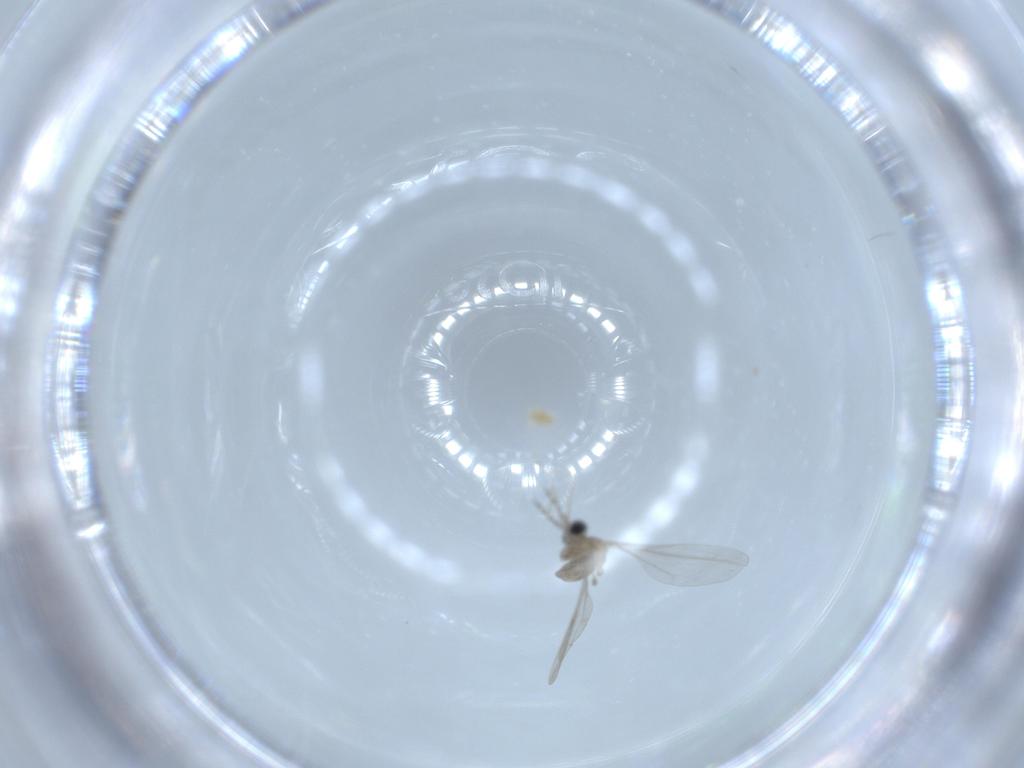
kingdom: Animalia
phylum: Arthropoda
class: Insecta
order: Diptera
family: Cecidomyiidae
